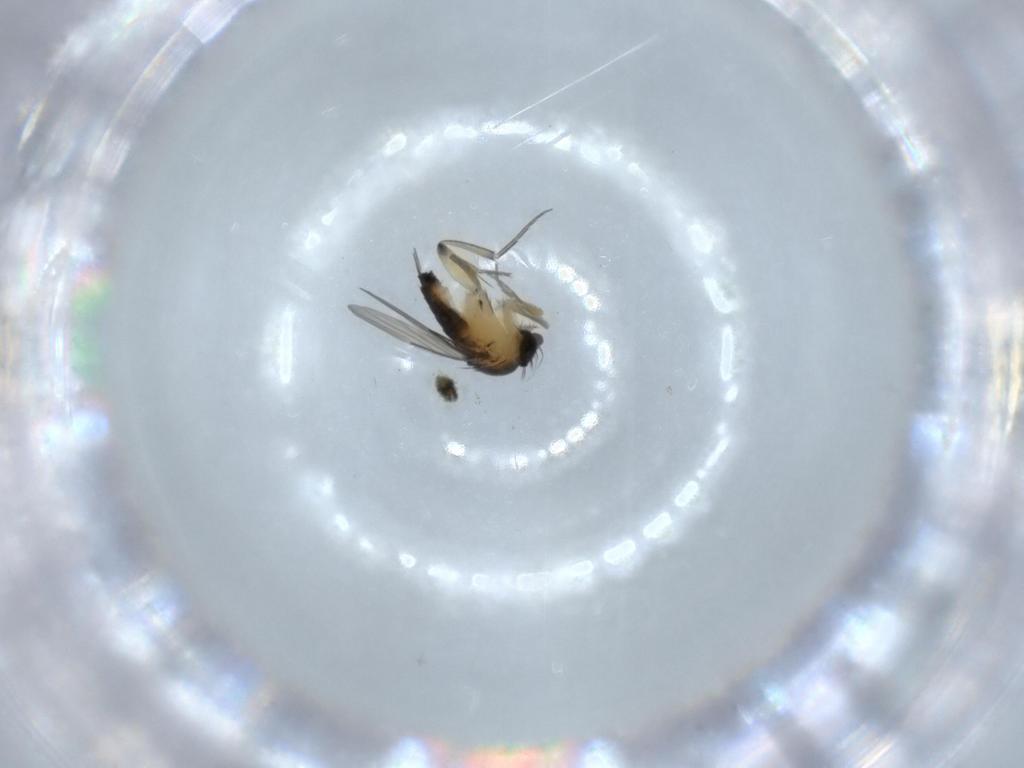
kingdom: Animalia
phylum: Arthropoda
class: Insecta
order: Diptera
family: Phoridae
